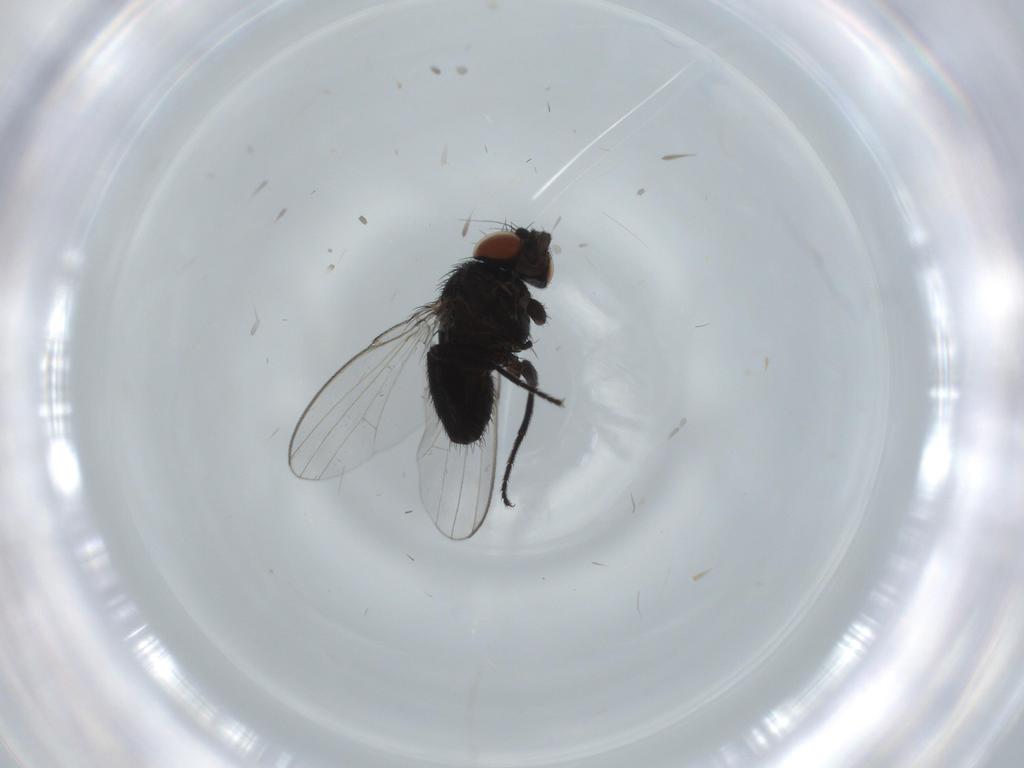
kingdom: Animalia
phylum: Arthropoda
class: Insecta
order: Diptera
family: Milichiidae
